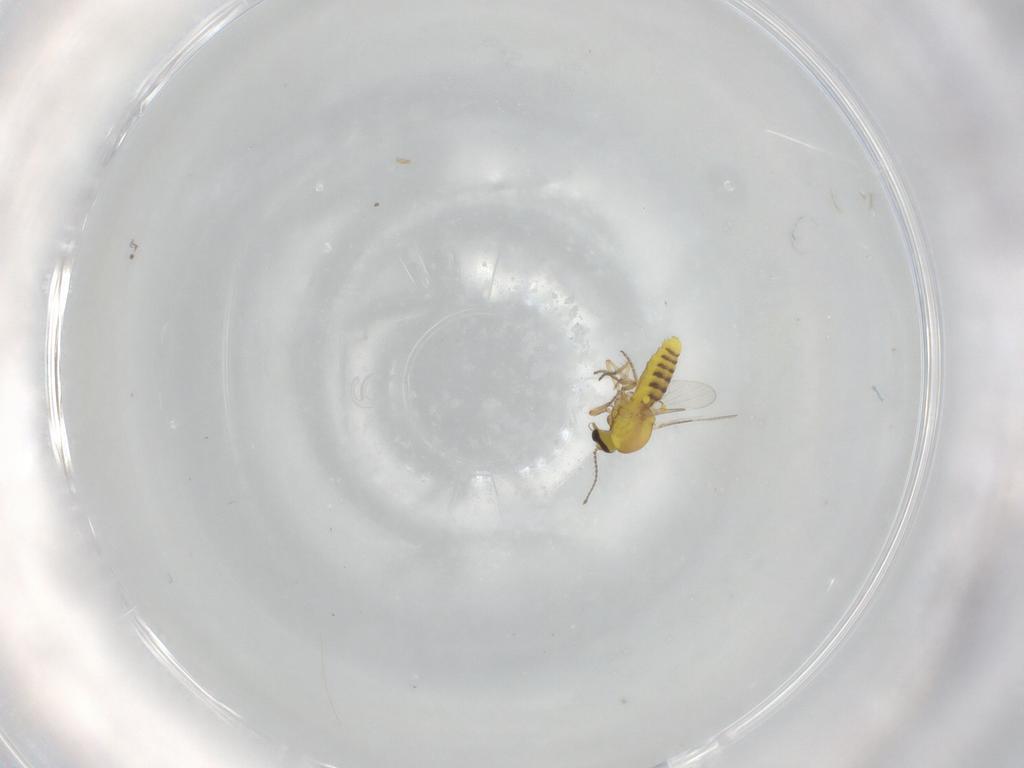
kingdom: Animalia
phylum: Arthropoda
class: Insecta
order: Diptera
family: Ceratopogonidae
